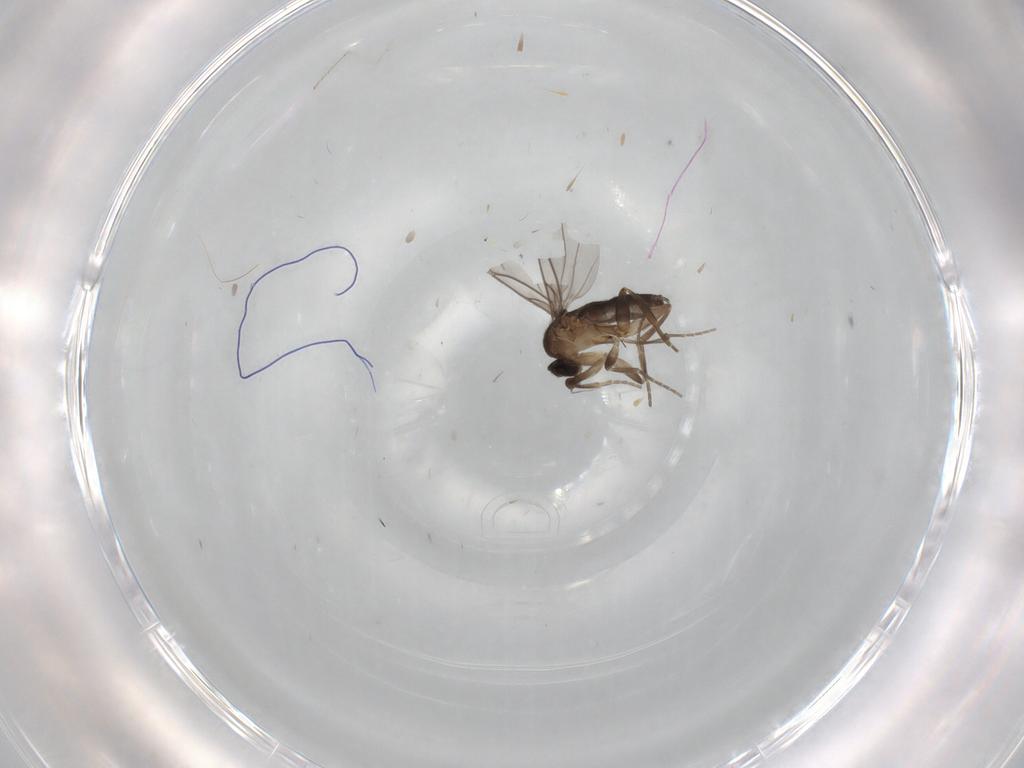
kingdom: Animalia
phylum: Arthropoda
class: Insecta
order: Diptera
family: Cecidomyiidae
